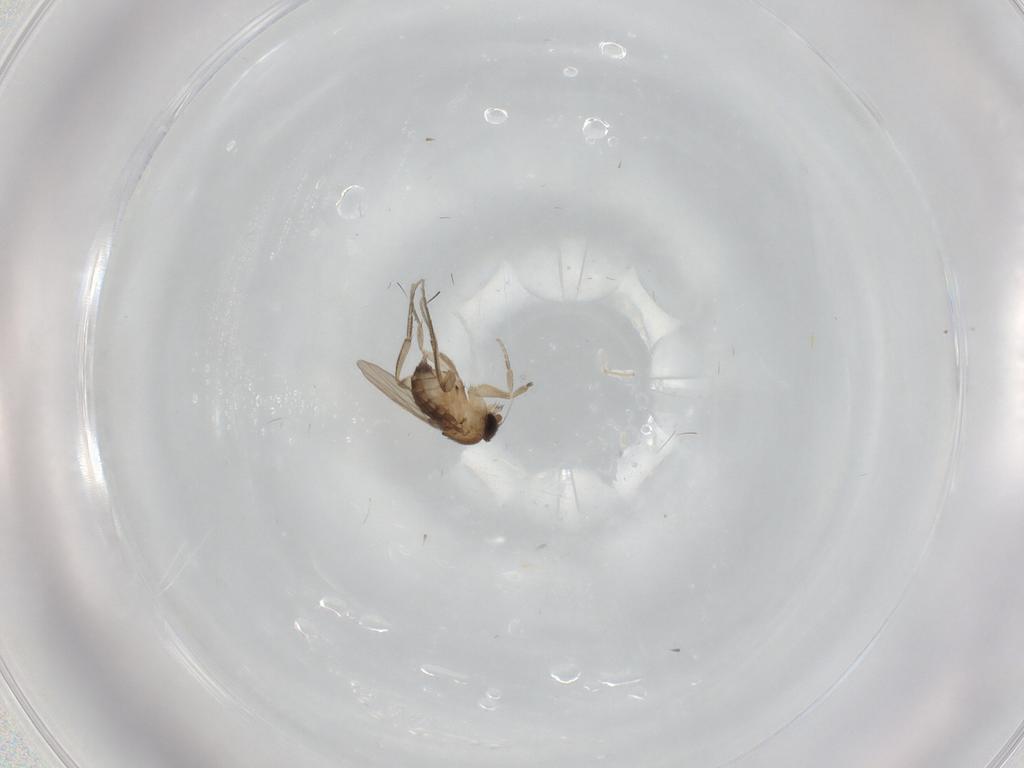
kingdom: Animalia
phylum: Arthropoda
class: Insecta
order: Diptera
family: Phoridae
